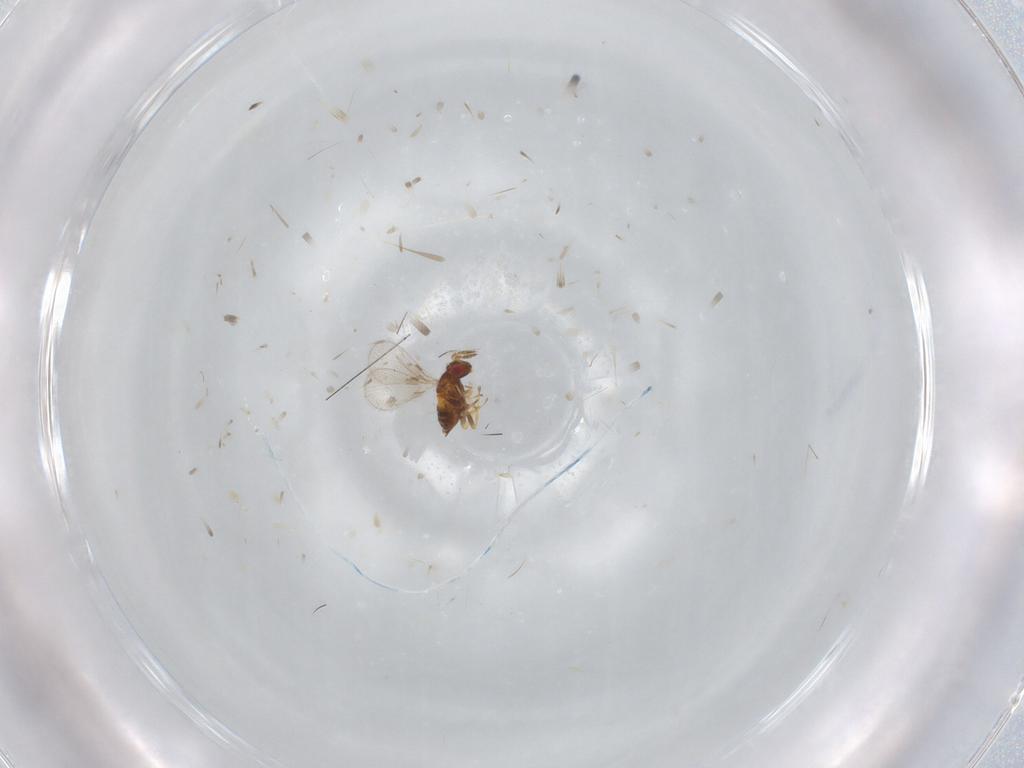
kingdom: Animalia
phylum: Arthropoda
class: Insecta
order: Hymenoptera
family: Trichogrammatidae
